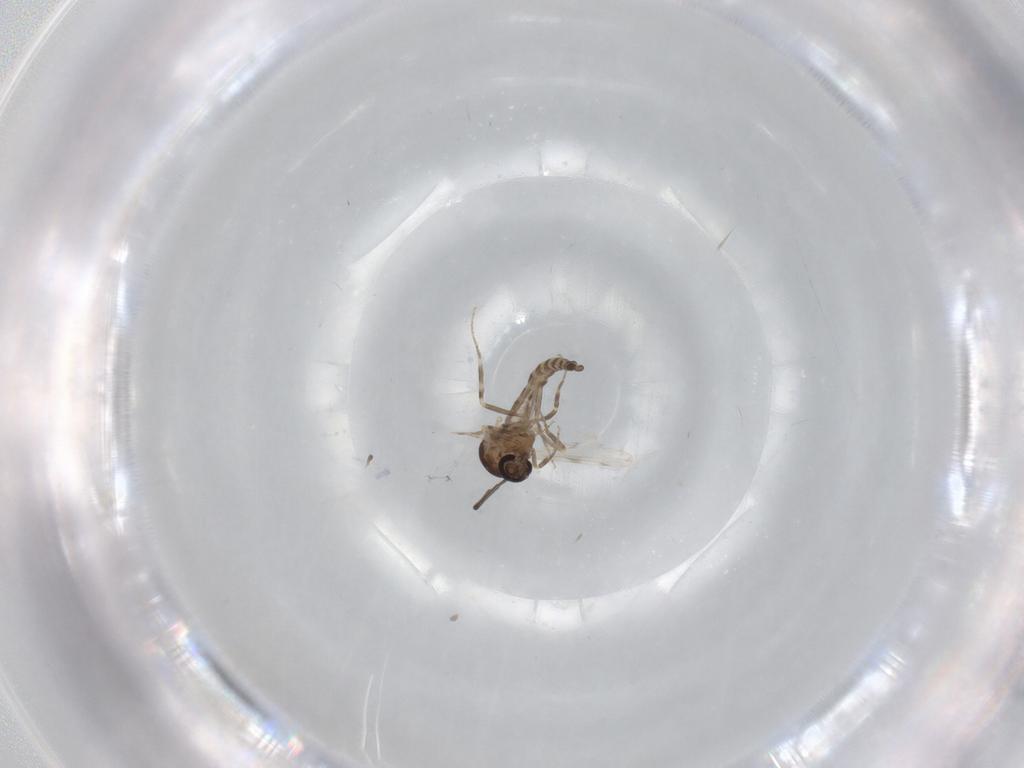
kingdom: Animalia
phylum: Arthropoda
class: Insecta
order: Diptera
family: Ceratopogonidae
